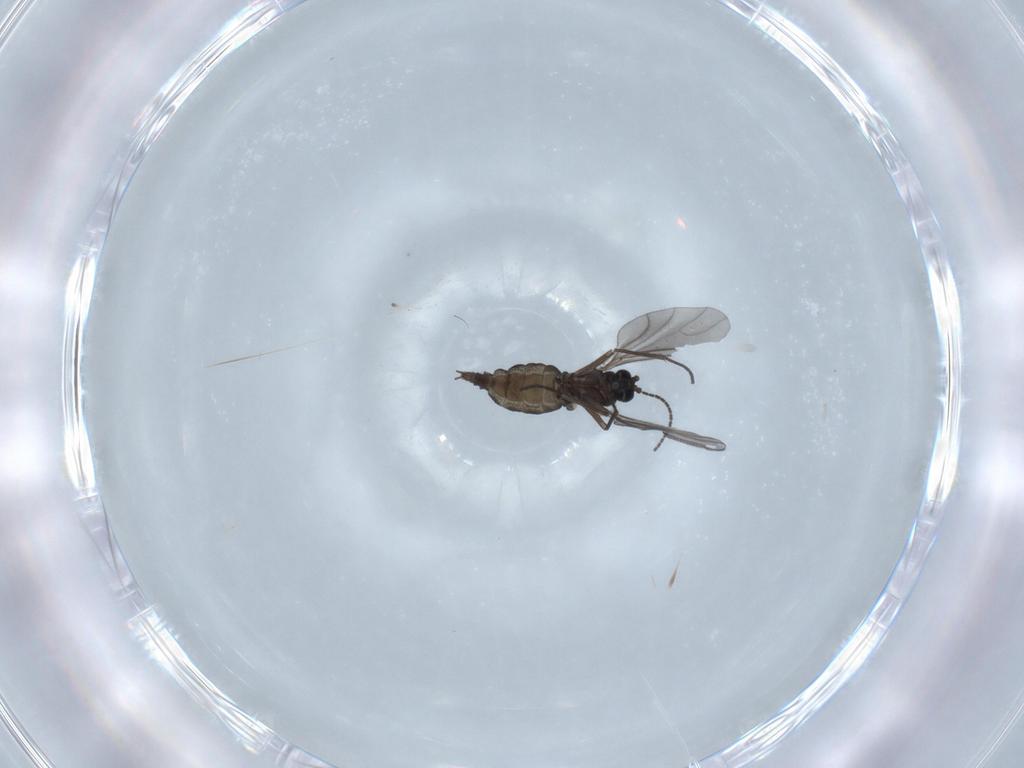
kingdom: Animalia
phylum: Arthropoda
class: Insecta
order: Diptera
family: Sciaridae
